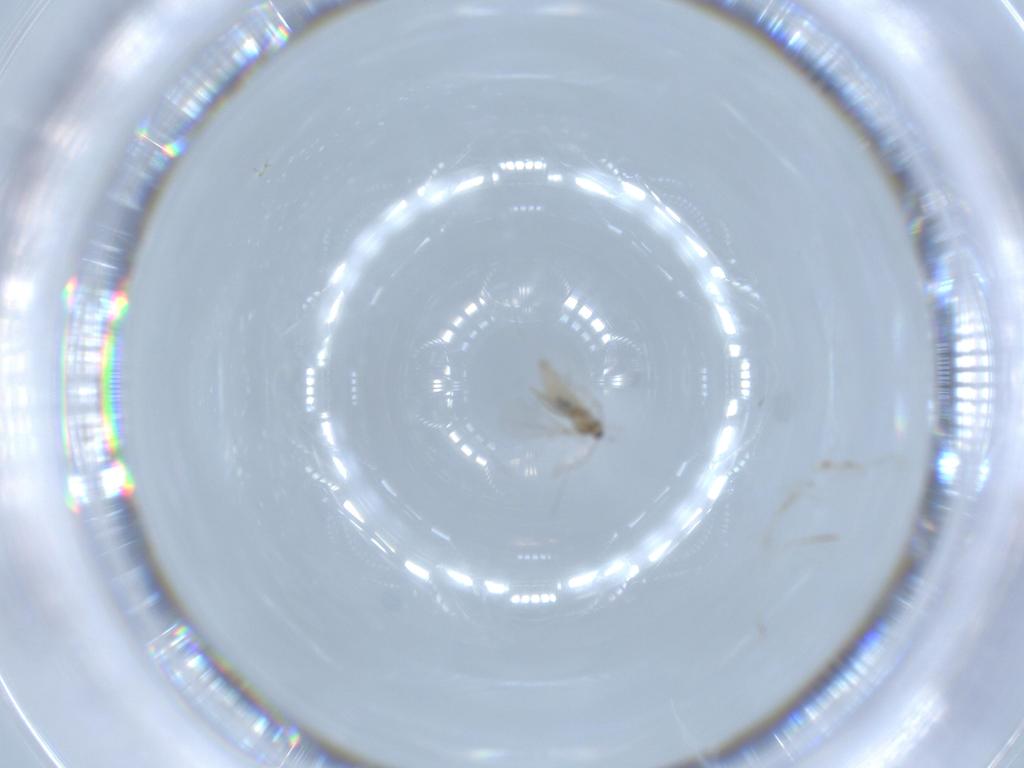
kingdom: Animalia
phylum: Arthropoda
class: Insecta
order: Diptera
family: Cecidomyiidae
